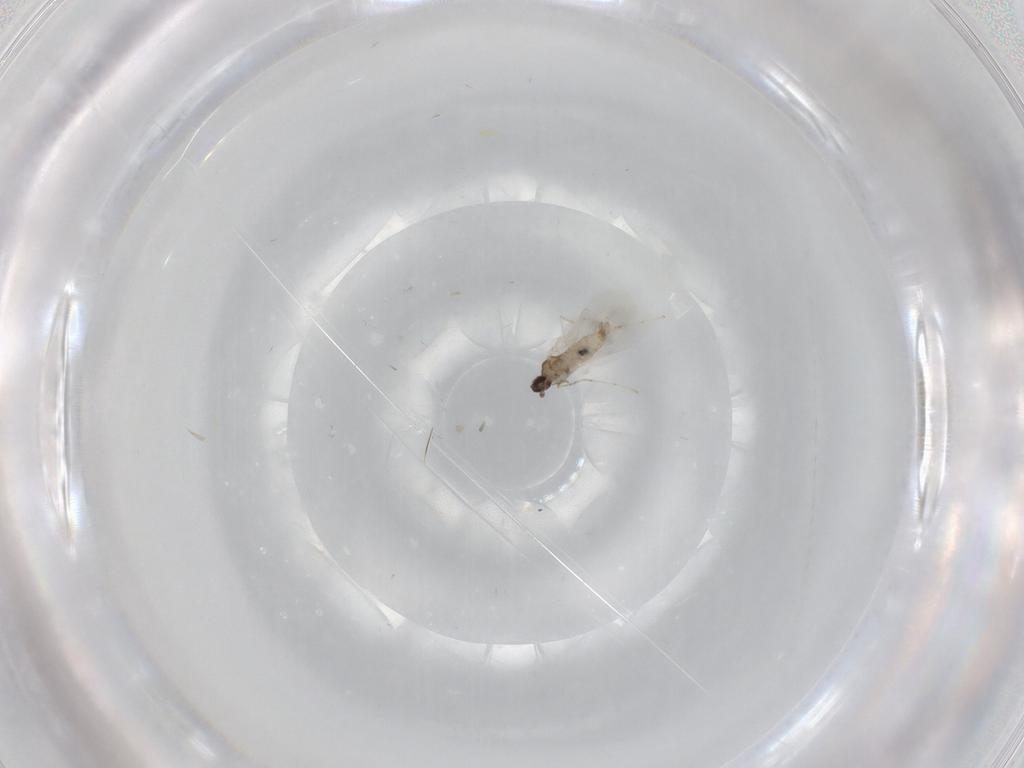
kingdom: Animalia
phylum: Arthropoda
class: Insecta
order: Diptera
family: Cecidomyiidae
